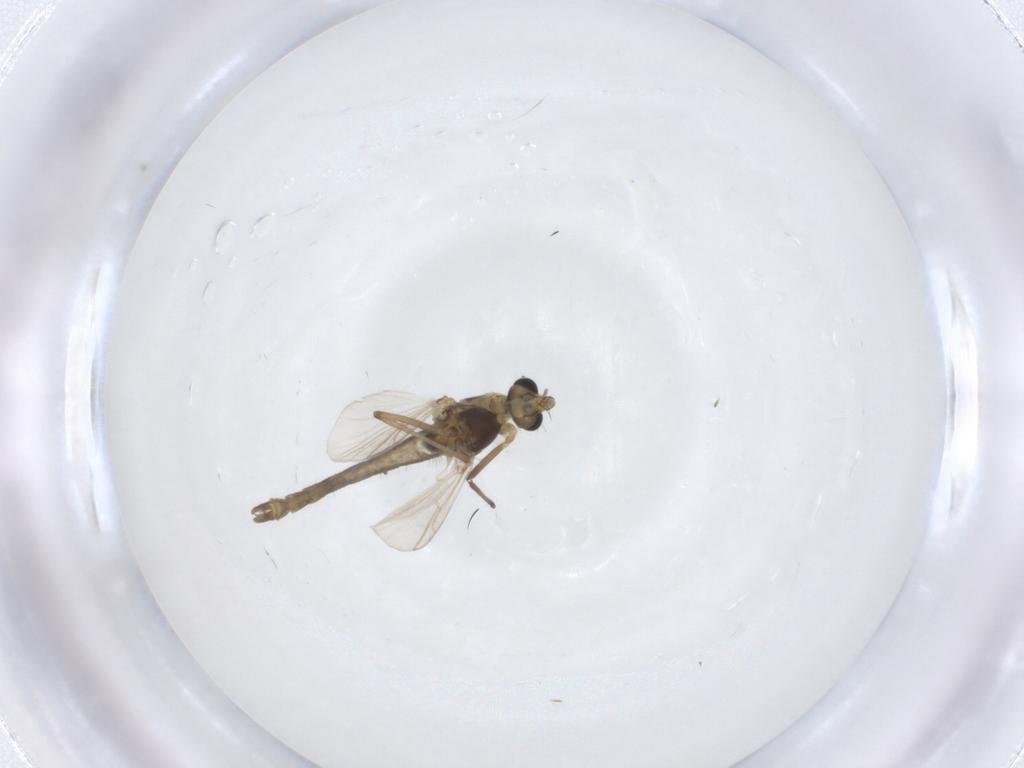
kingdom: Animalia
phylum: Arthropoda
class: Insecta
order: Diptera
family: Chironomidae
